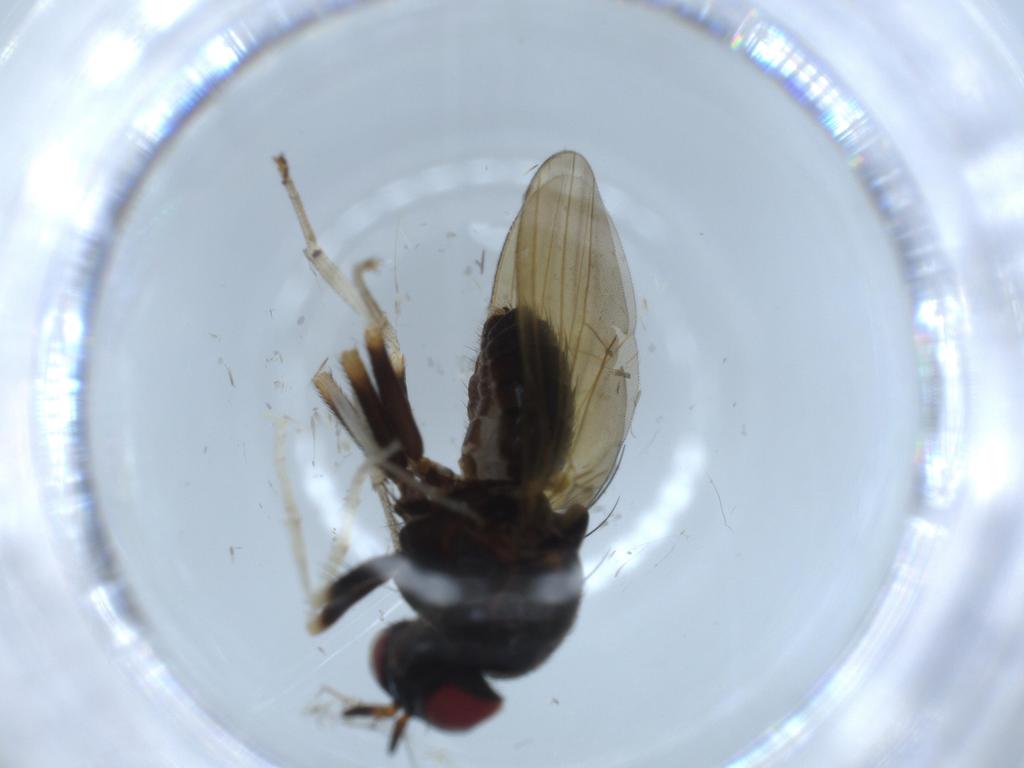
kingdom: Animalia
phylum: Arthropoda
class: Insecta
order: Diptera
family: Lauxaniidae
